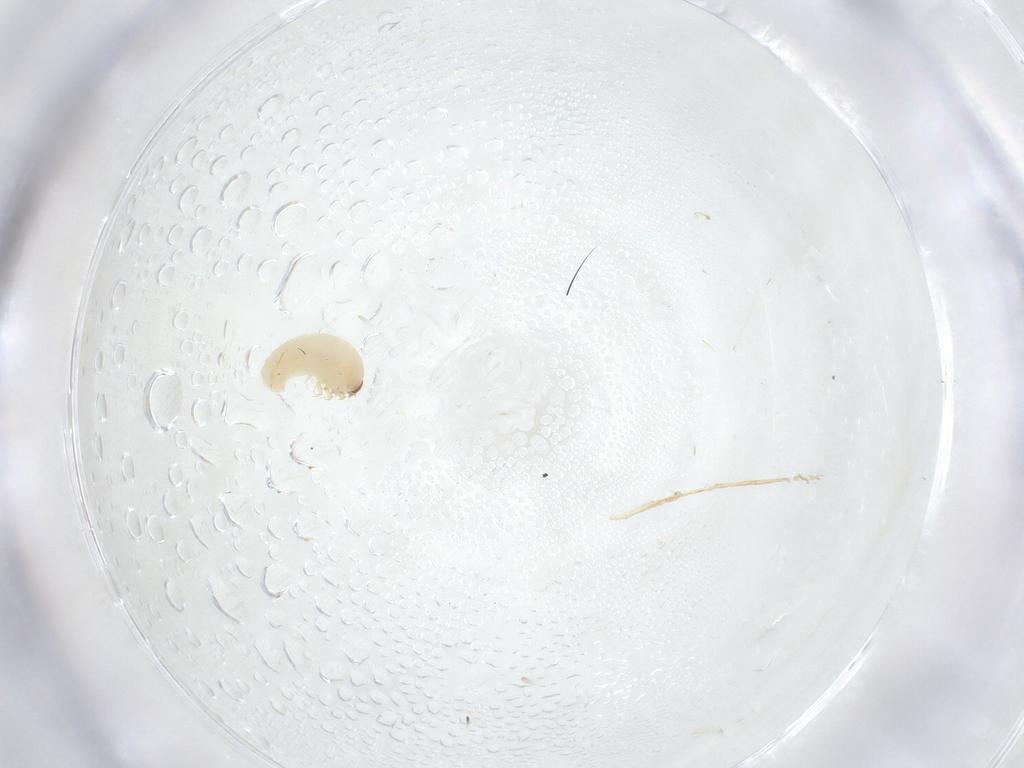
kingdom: Animalia
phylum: Arthropoda
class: Insecta
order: Coleoptera
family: Bostrichidae
